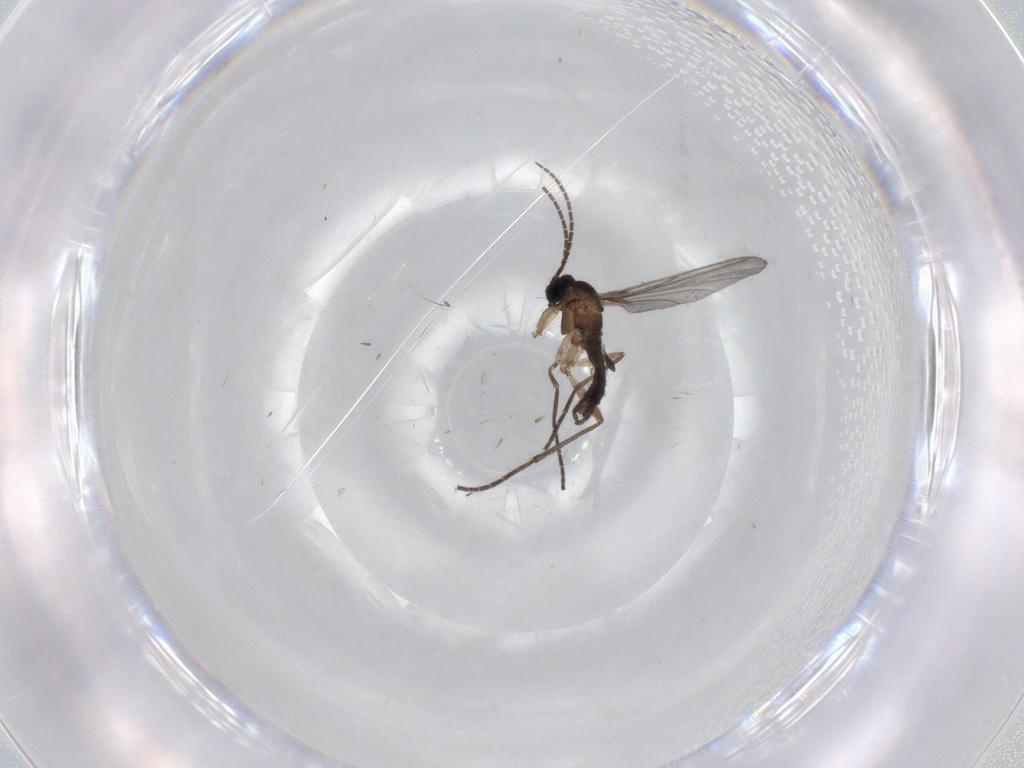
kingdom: Animalia
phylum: Arthropoda
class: Insecta
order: Diptera
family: Sciaridae
